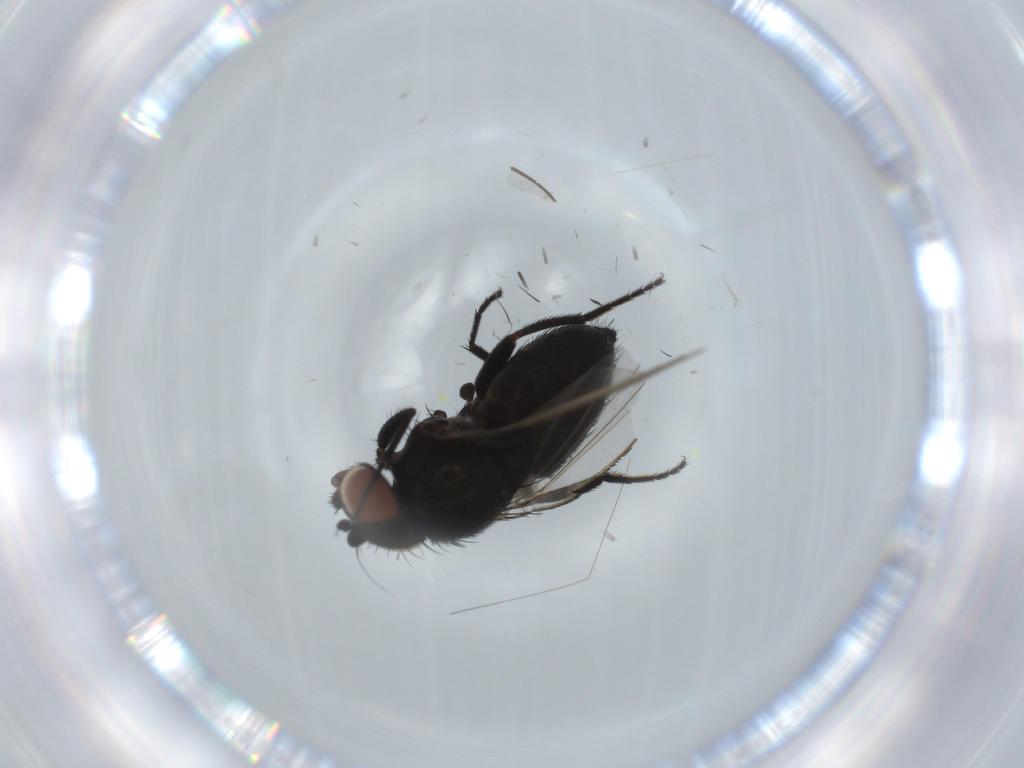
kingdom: Animalia
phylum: Arthropoda
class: Insecta
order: Diptera
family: Milichiidae
